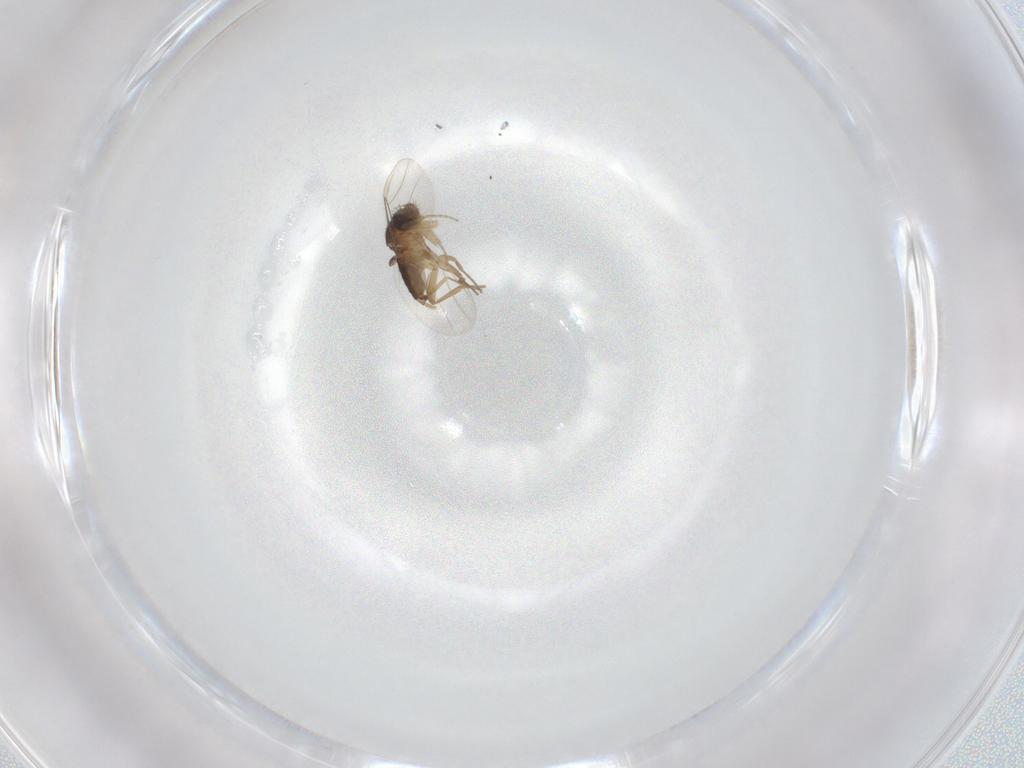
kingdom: Animalia
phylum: Arthropoda
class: Insecta
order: Diptera
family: Phoridae
